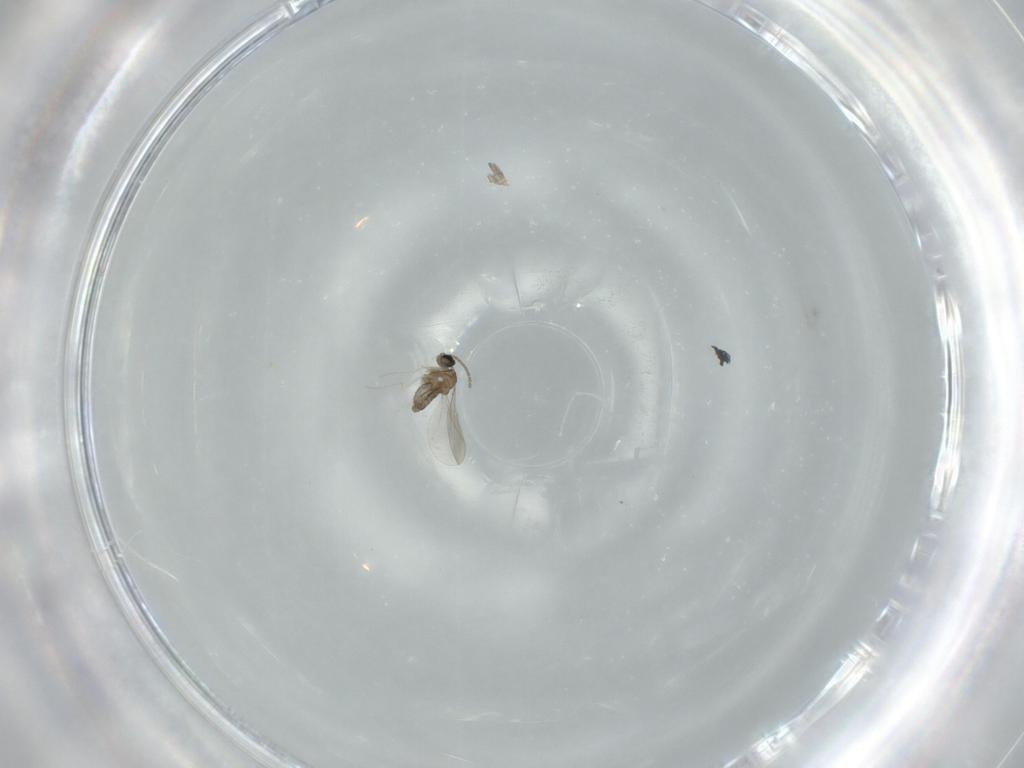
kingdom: Animalia
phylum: Arthropoda
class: Insecta
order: Diptera
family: Cecidomyiidae
